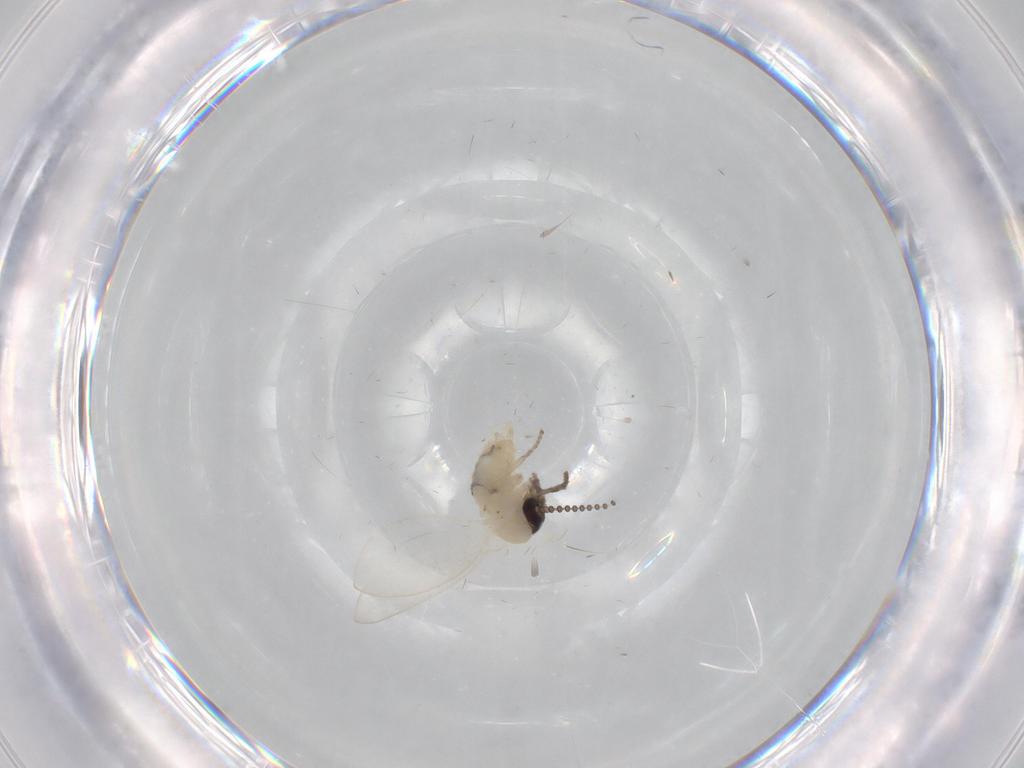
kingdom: Animalia
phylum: Arthropoda
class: Insecta
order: Diptera
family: Psychodidae
